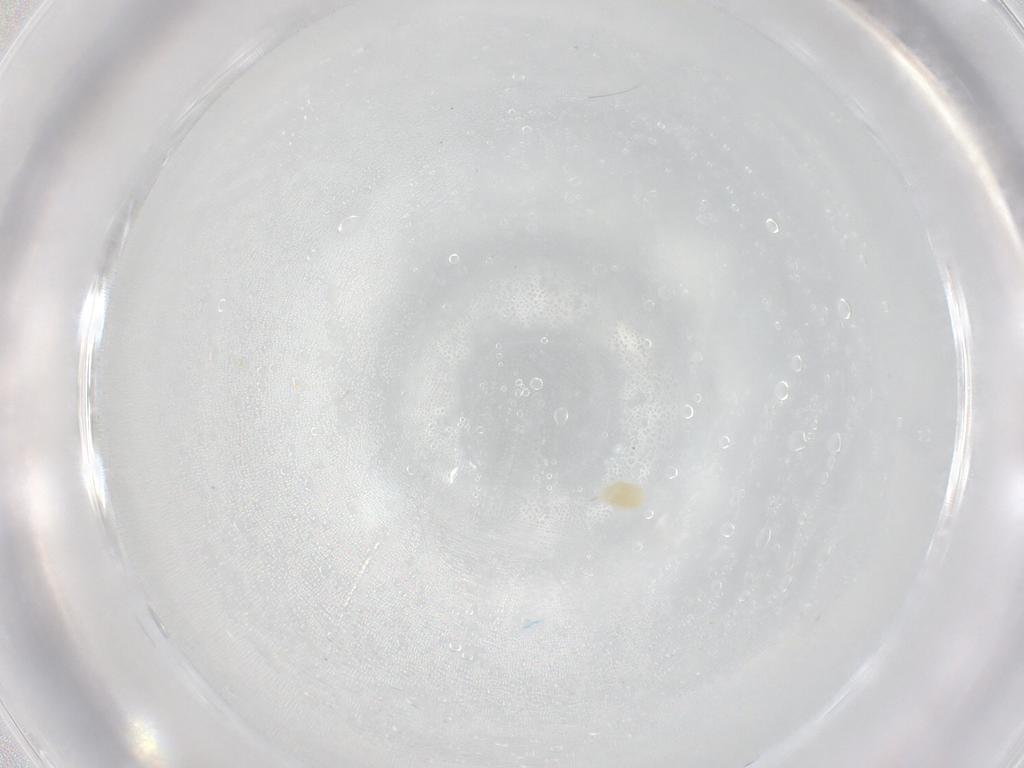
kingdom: Animalia
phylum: Arthropoda
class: Arachnida
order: Trombidiformes
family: Eupodidae
